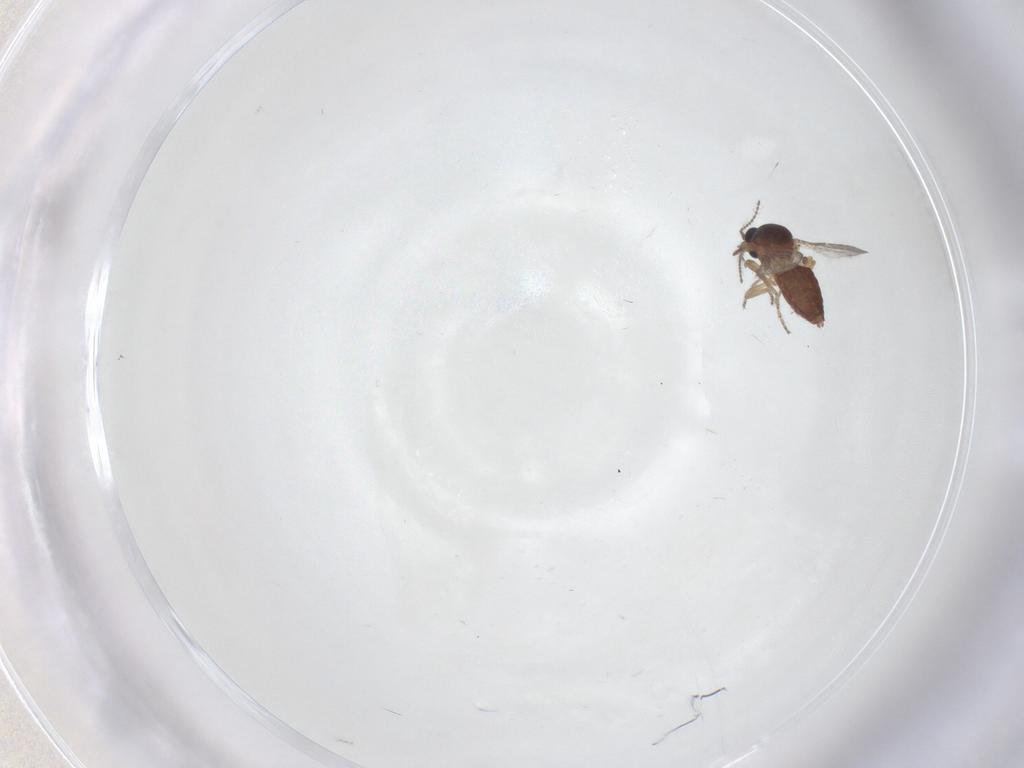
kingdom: Animalia
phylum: Arthropoda
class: Insecta
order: Diptera
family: Ceratopogonidae
